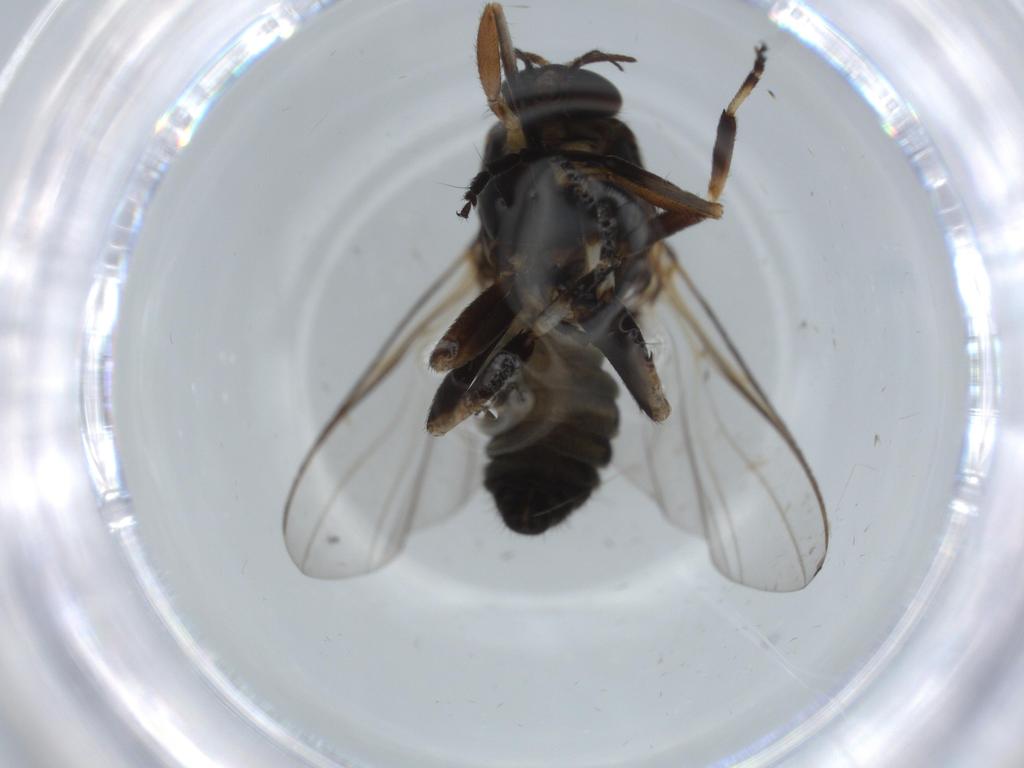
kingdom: Animalia
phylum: Arthropoda
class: Insecta
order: Diptera
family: Cecidomyiidae
